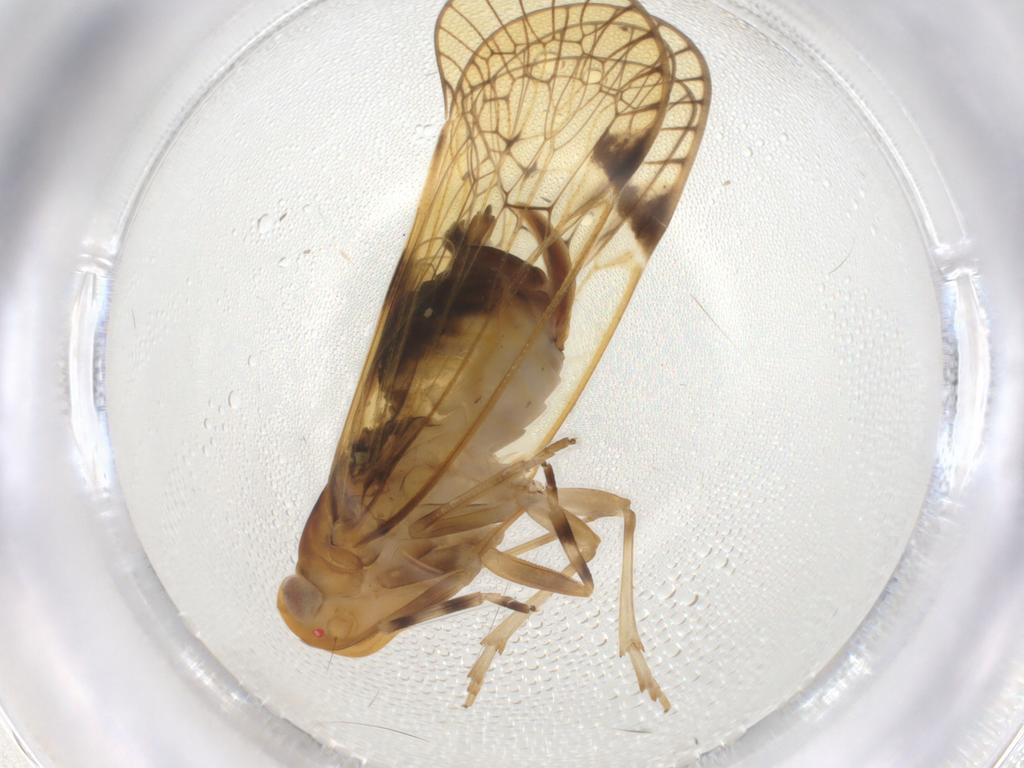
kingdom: Animalia
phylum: Arthropoda
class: Insecta
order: Hemiptera
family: Cixiidae
